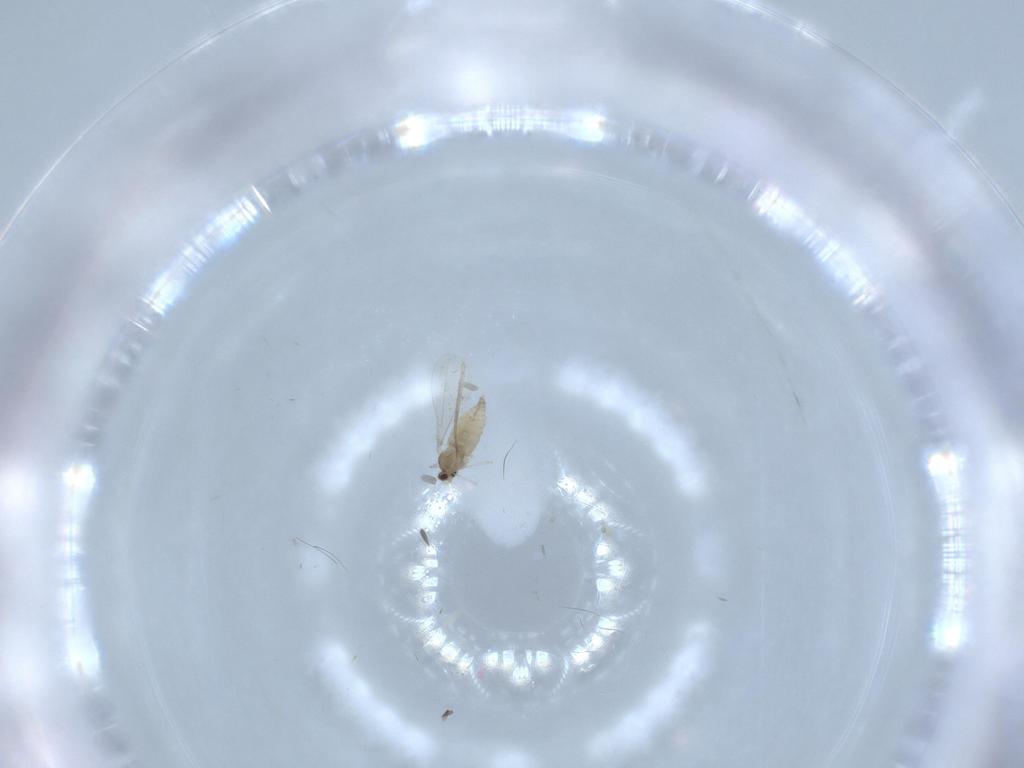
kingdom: Animalia
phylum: Arthropoda
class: Insecta
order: Diptera
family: Cecidomyiidae
